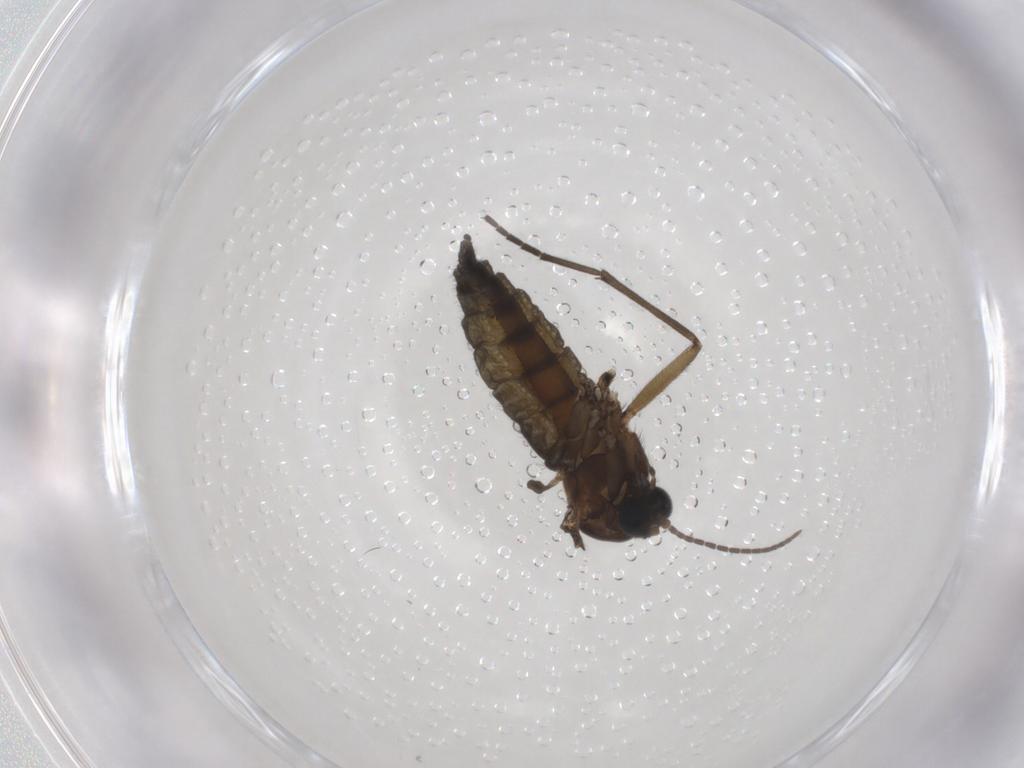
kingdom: Animalia
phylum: Arthropoda
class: Insecta
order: Diptera
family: Sciaridae
